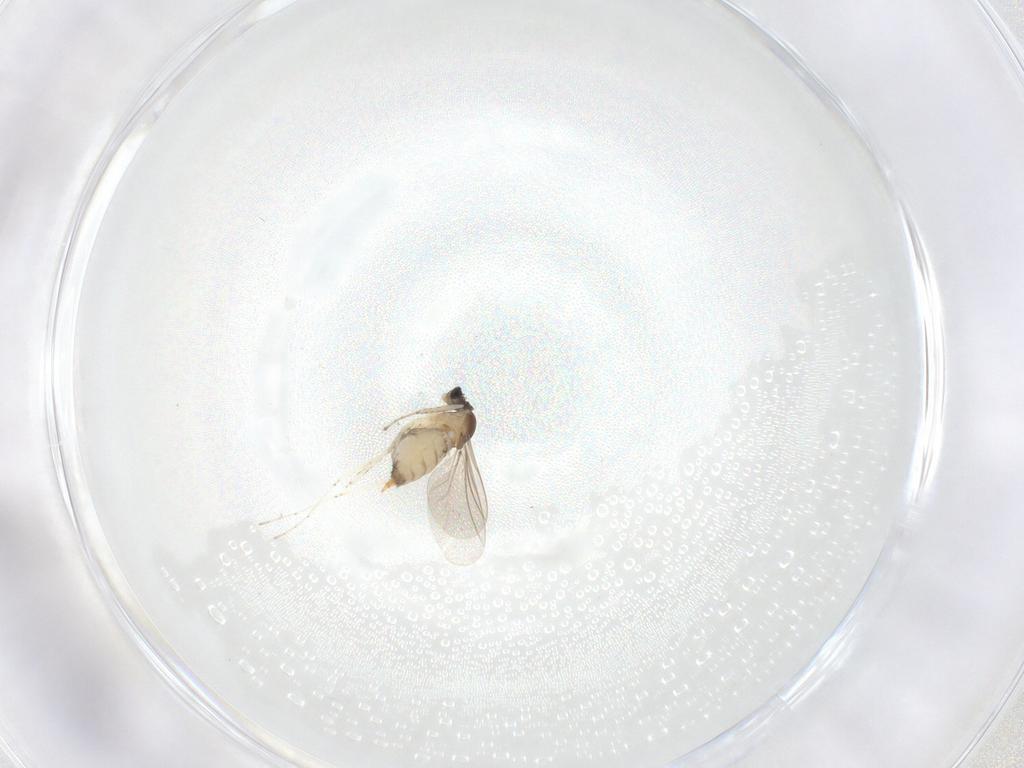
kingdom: Animalia
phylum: Arthropoda
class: Insecta
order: Diptera
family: Cecidomyiidae
